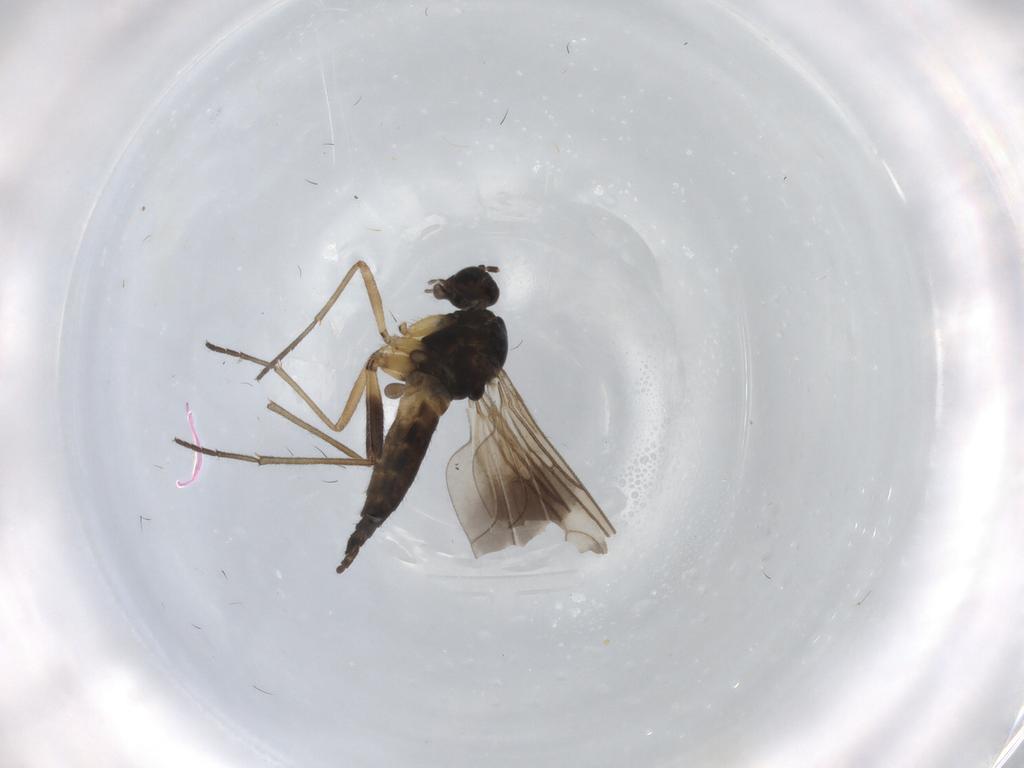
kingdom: Animalia
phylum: Arthropoda
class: Insecta
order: Diptera
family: Sciaridae
